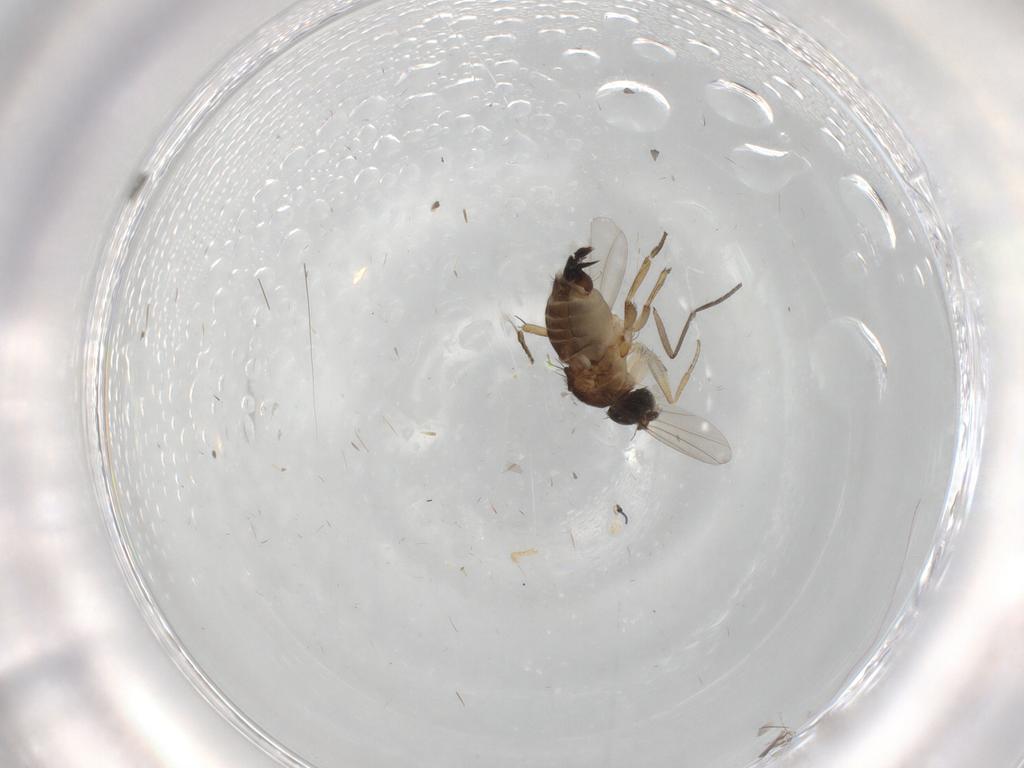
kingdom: Animalia
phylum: Arthropoda
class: Insecta
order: Diptera
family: Phoridae
